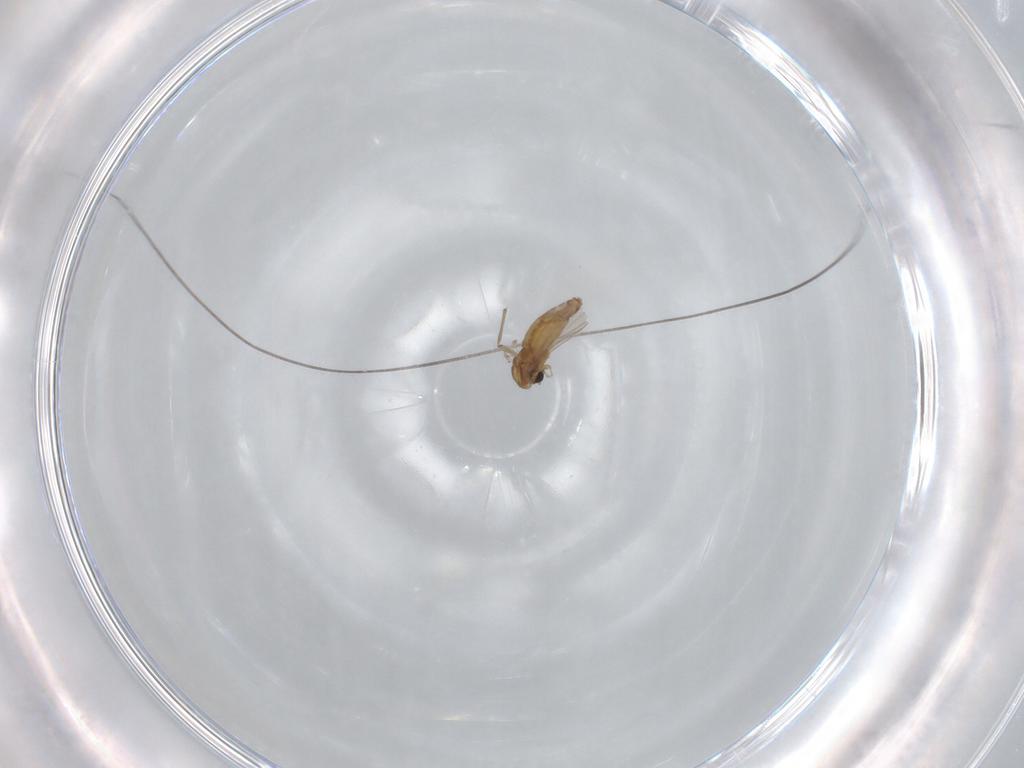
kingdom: Animalia
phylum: Arthropoda
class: Insecta
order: Diptera
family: Chironomidae
